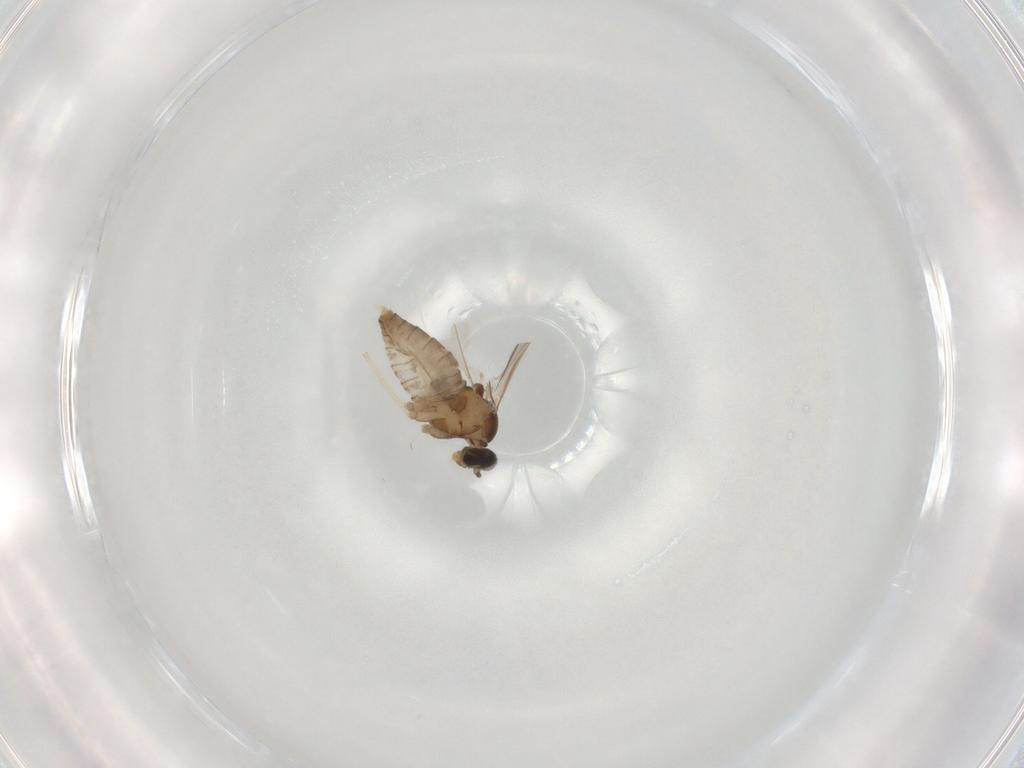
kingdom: Animalia
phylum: Arthropoda
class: Insecta
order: Diptera
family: Cecidomyiidae
